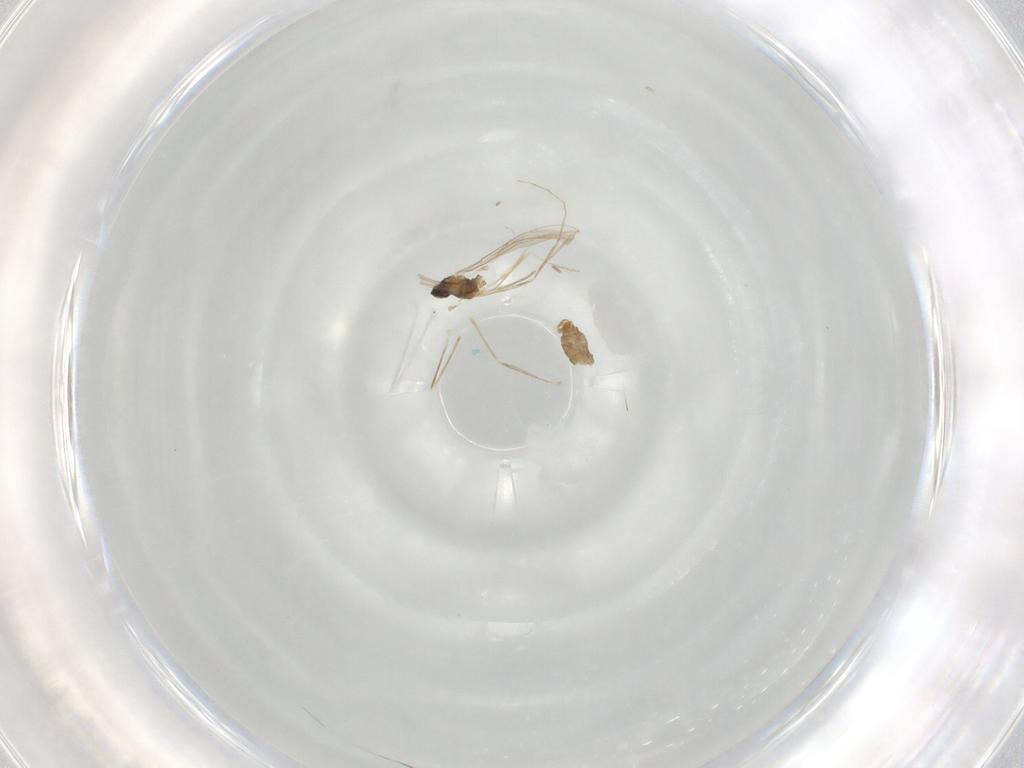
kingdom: Animalia
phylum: Arthropoda
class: Insecta
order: Diptera
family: Cecidomyiidae
